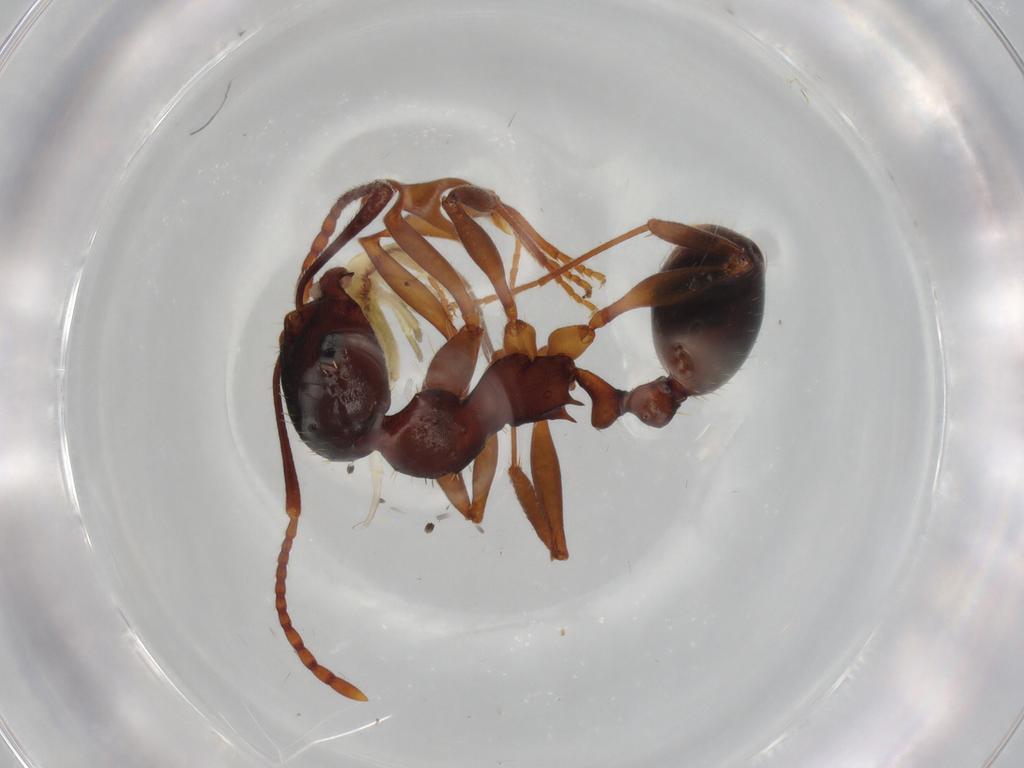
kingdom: Animalia
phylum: Arthropoda
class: Insecta
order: Hymenoptera
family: Formicidae
